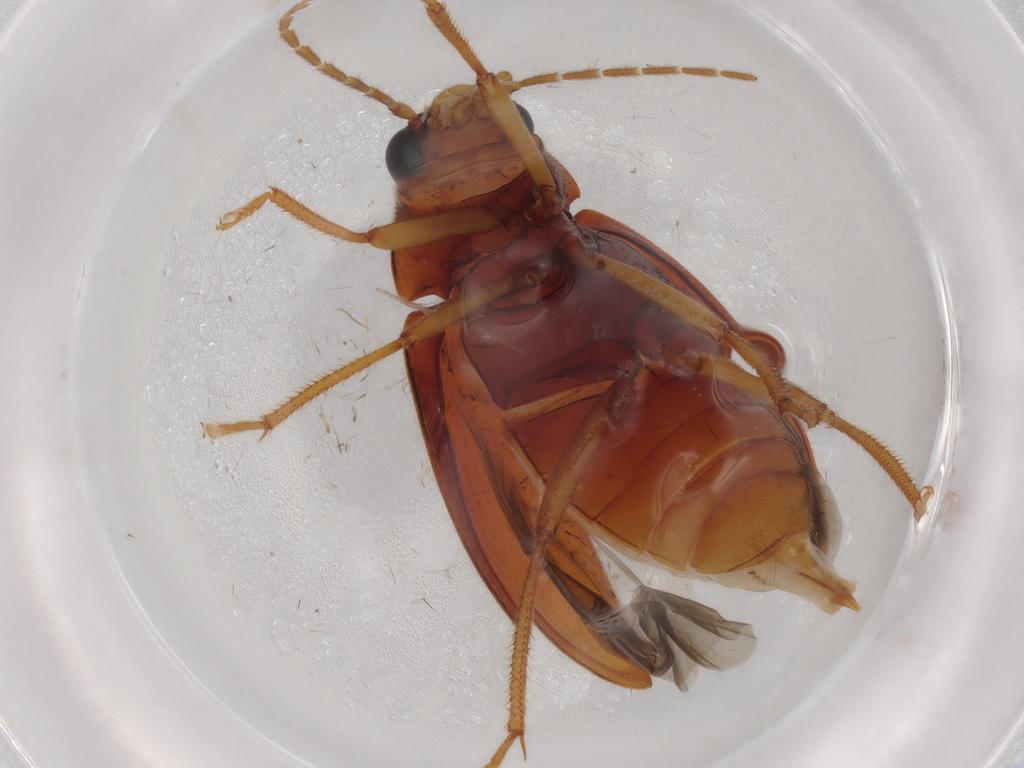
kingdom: Animalia
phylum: Arthropoda
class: Insecta
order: Coleoptera
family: Ptilodactylidae
